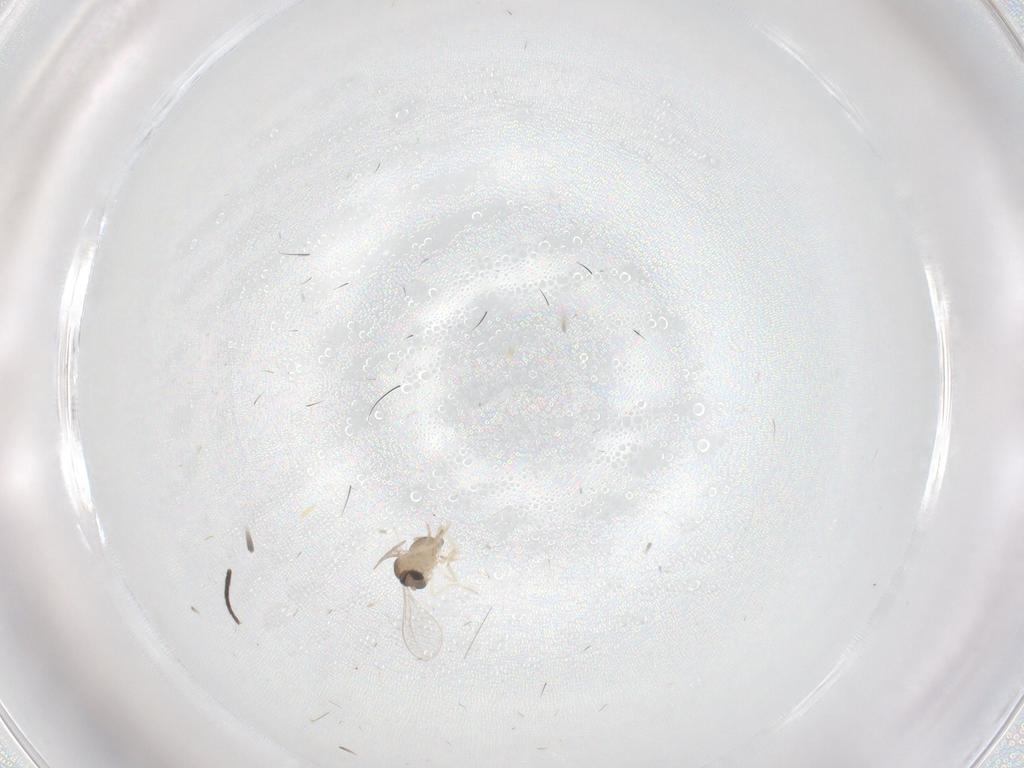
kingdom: Animalia
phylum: Arthropoda
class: Insecta
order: Diptera
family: Cecidomyiidae
